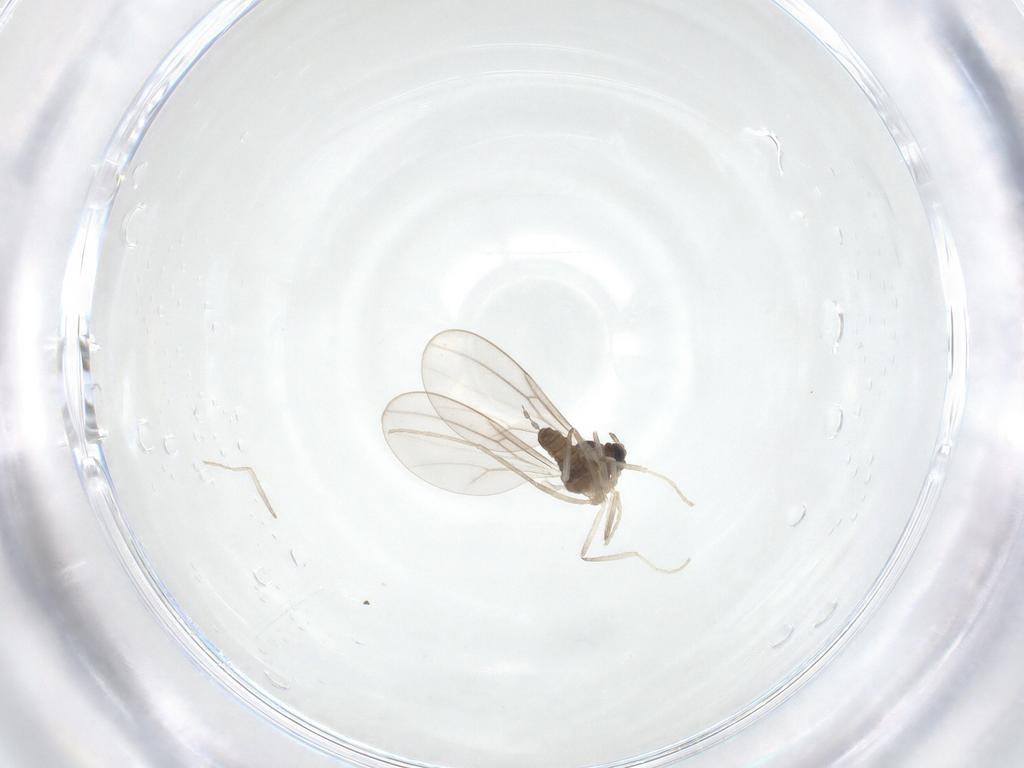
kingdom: Animalia
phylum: Arthropoda
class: Insecta
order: Diptera
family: Cecidomyiidae
